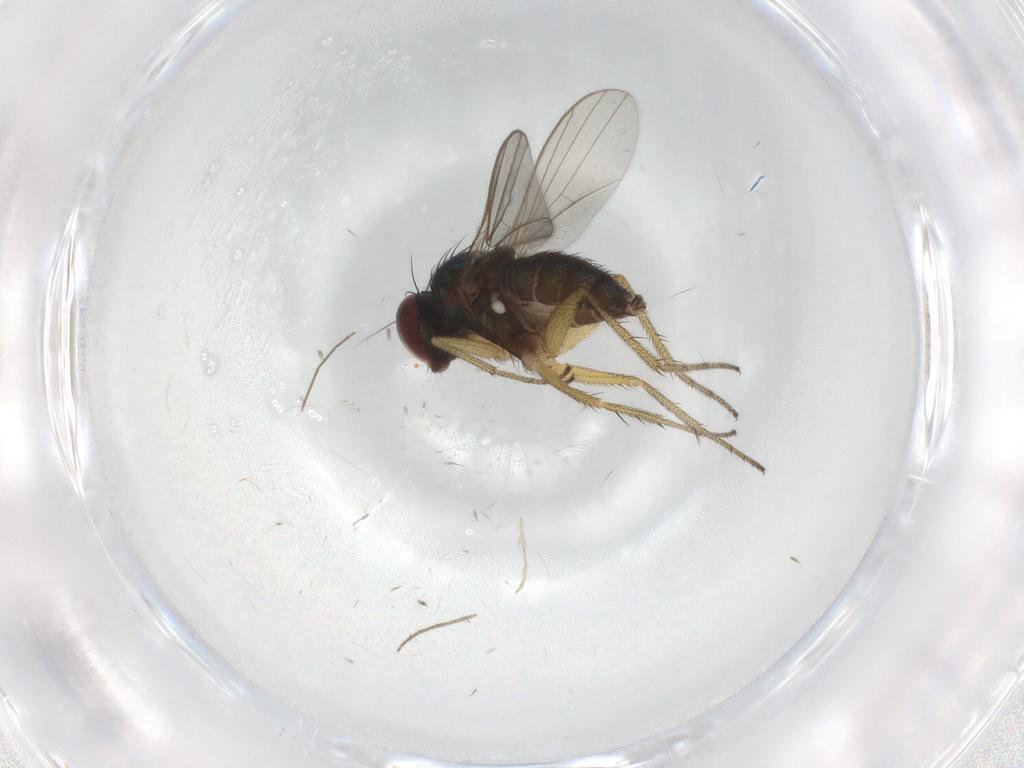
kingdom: Animalia
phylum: Arthropoda
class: Insecta
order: Diptera
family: Dolichopodidae
